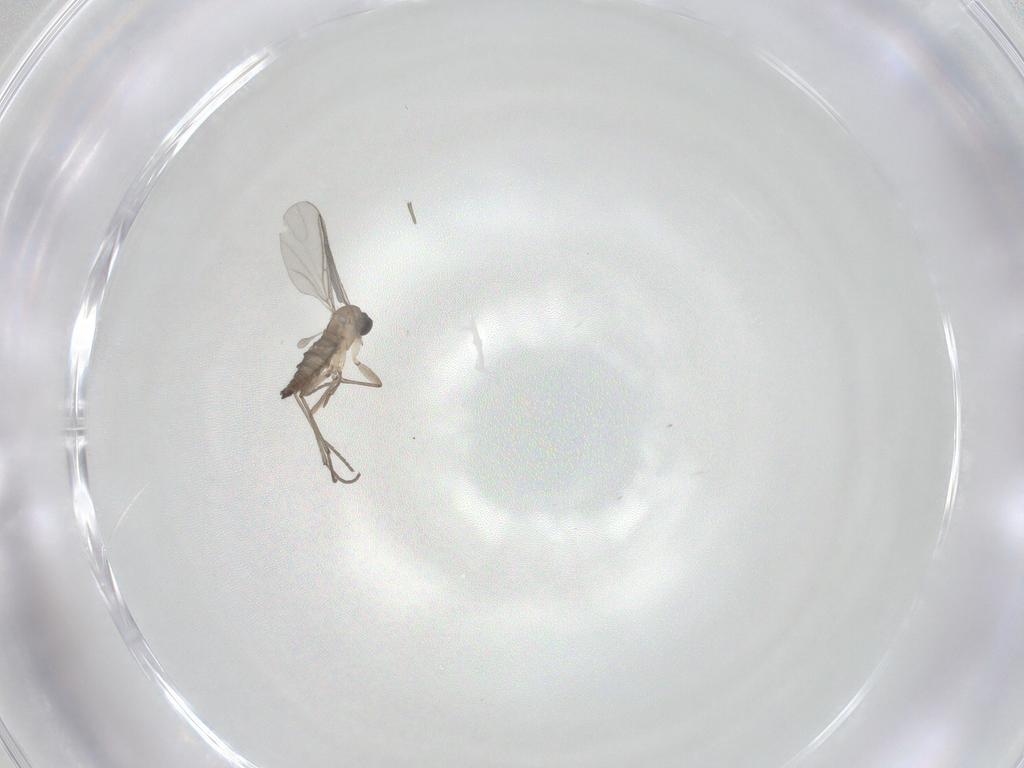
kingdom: Animalia
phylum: Arthropoda
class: Insecta
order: Diptera
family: Sciaridae
